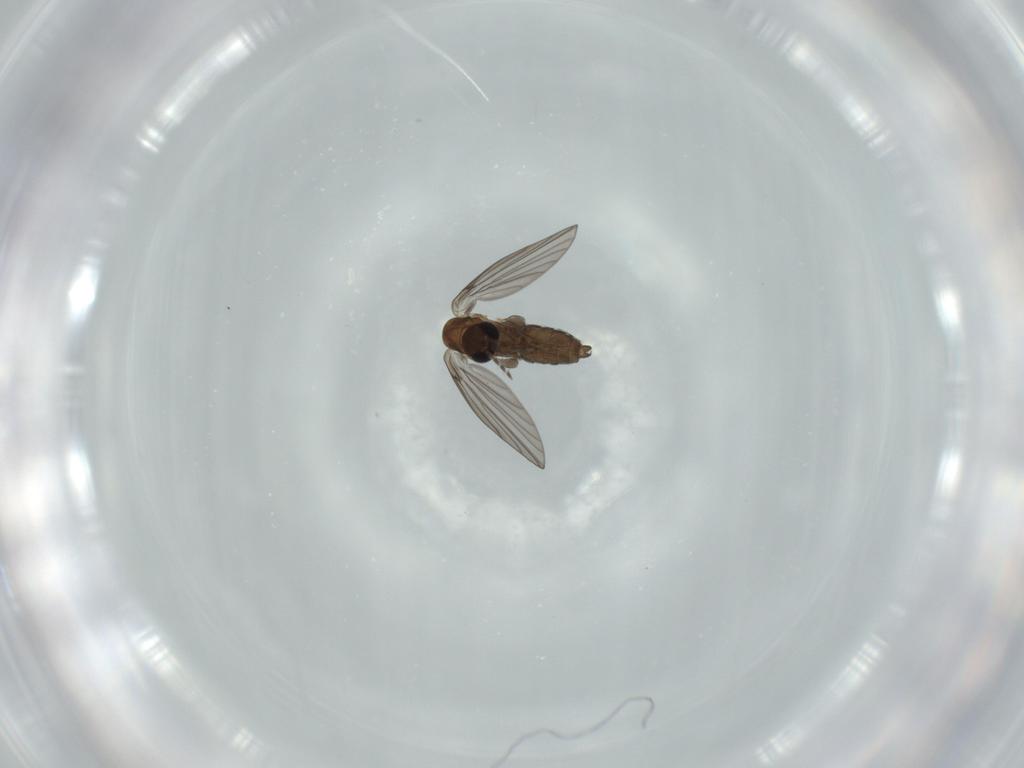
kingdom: Animalia
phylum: Arthropoda
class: Insecta
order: Diptera
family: Psychodidae
